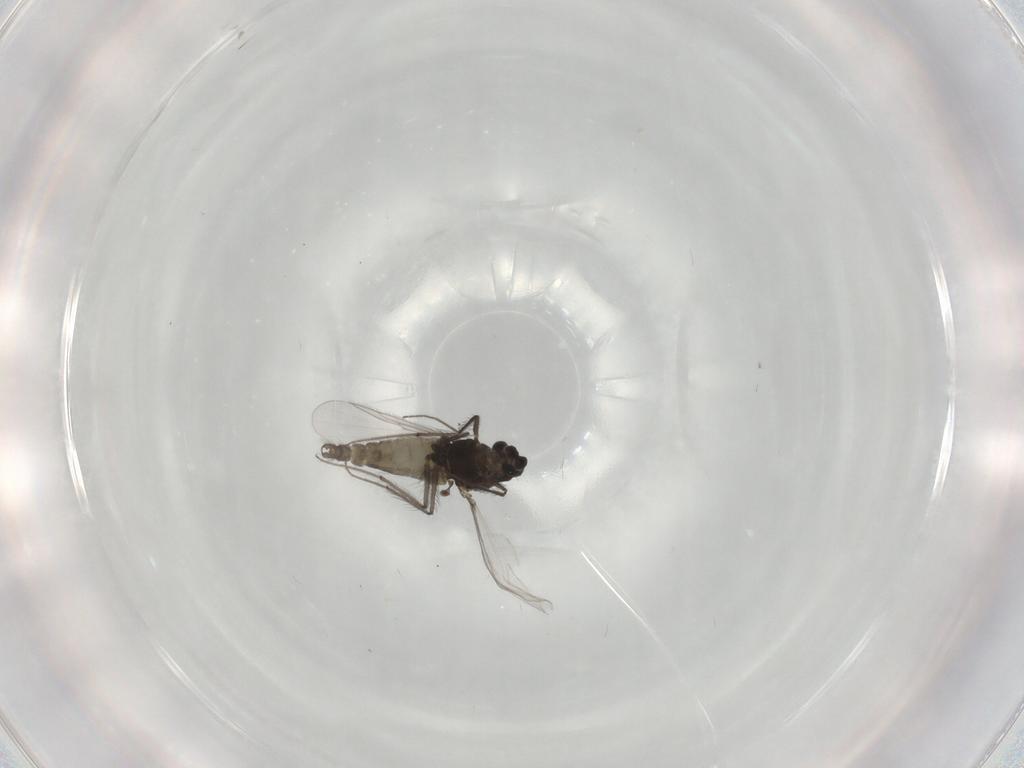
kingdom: Animalia
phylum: Arthropoda
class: Insecta
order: Diptera
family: Chironomidae
